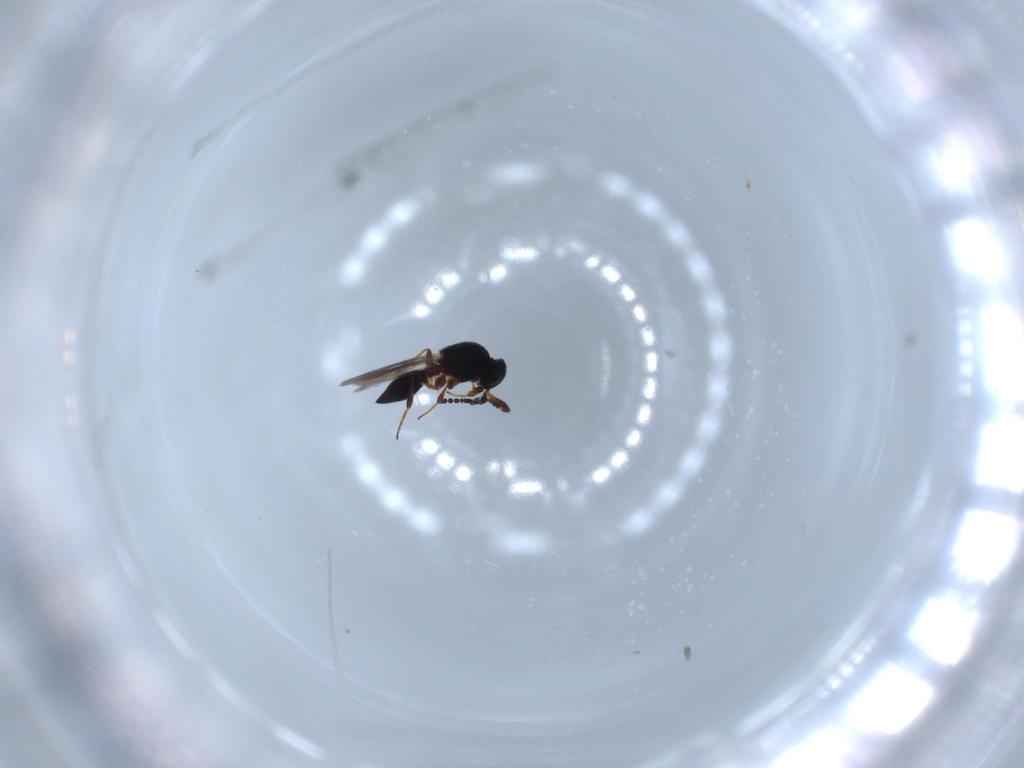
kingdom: Animalia
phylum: Arthropoda
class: Insecta
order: Hymenoptera
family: Platygastridae
